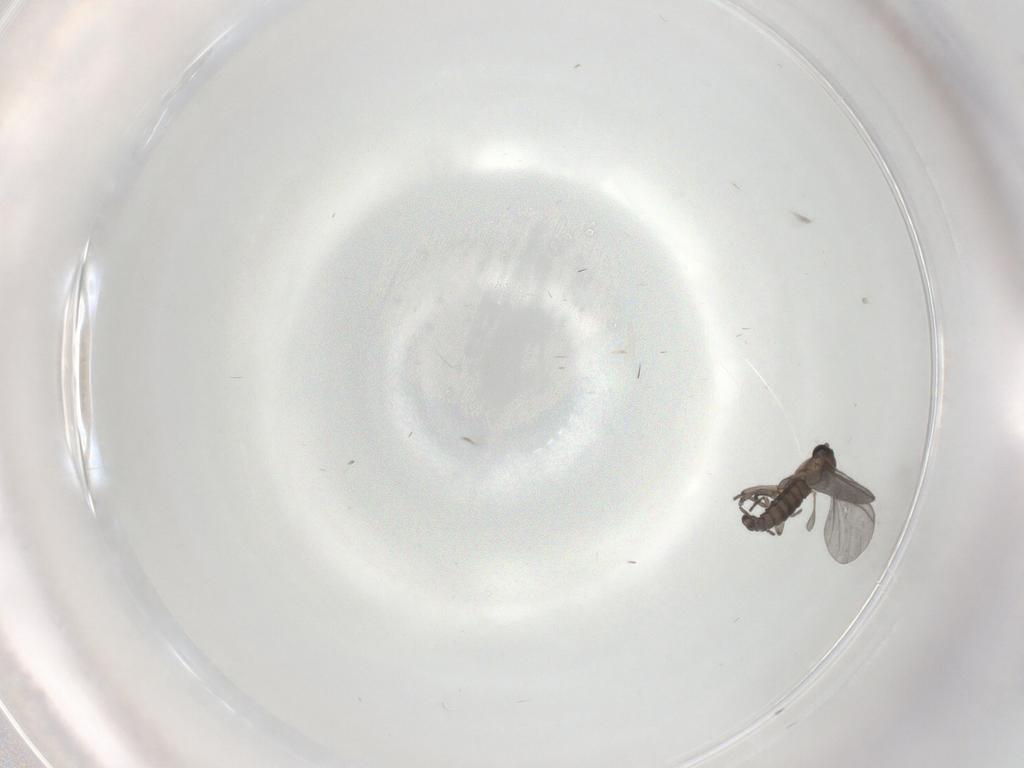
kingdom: Animalia
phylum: Arthropoda
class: Insecta
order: Diptera
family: Sciaridae
